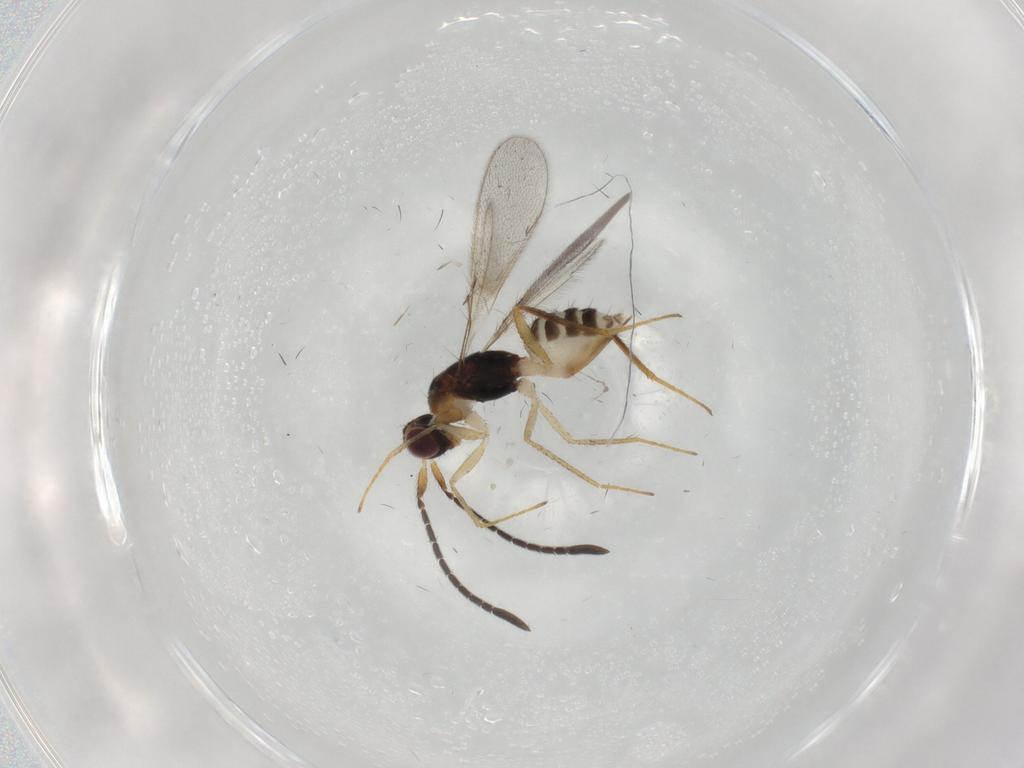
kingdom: Animalia
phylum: Arthropoda
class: Insecta
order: Hymenoptera
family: Mymaridae
